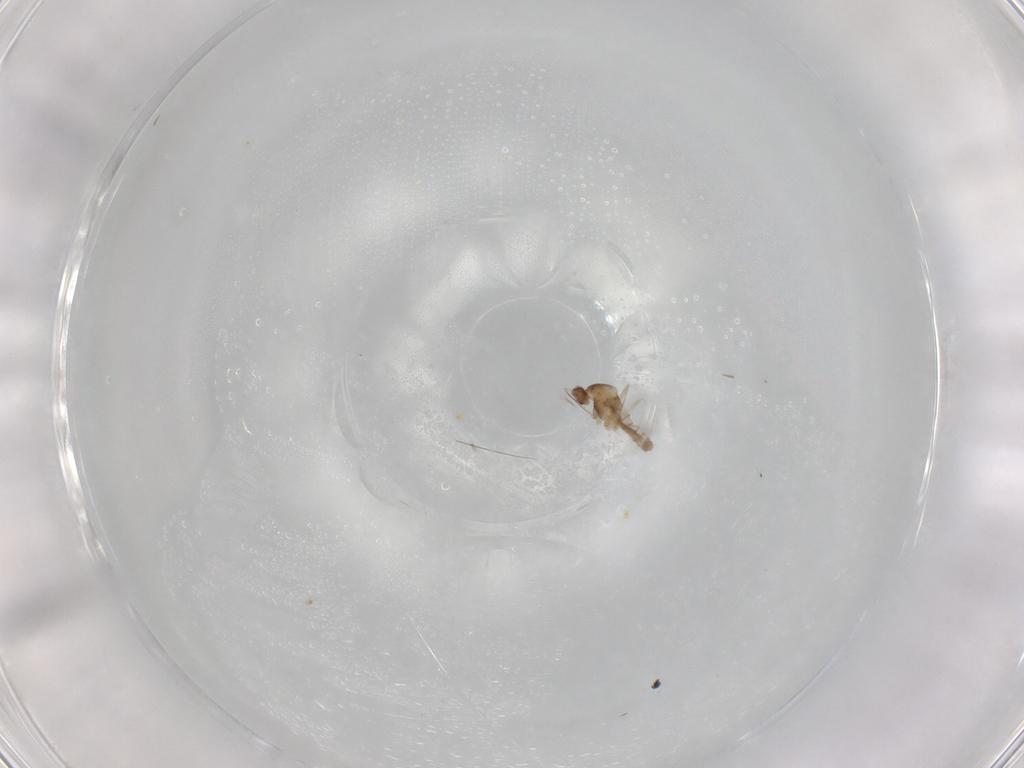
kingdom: Animalia
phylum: Arthropoda
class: Insecta
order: Diptera
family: Muscidae
